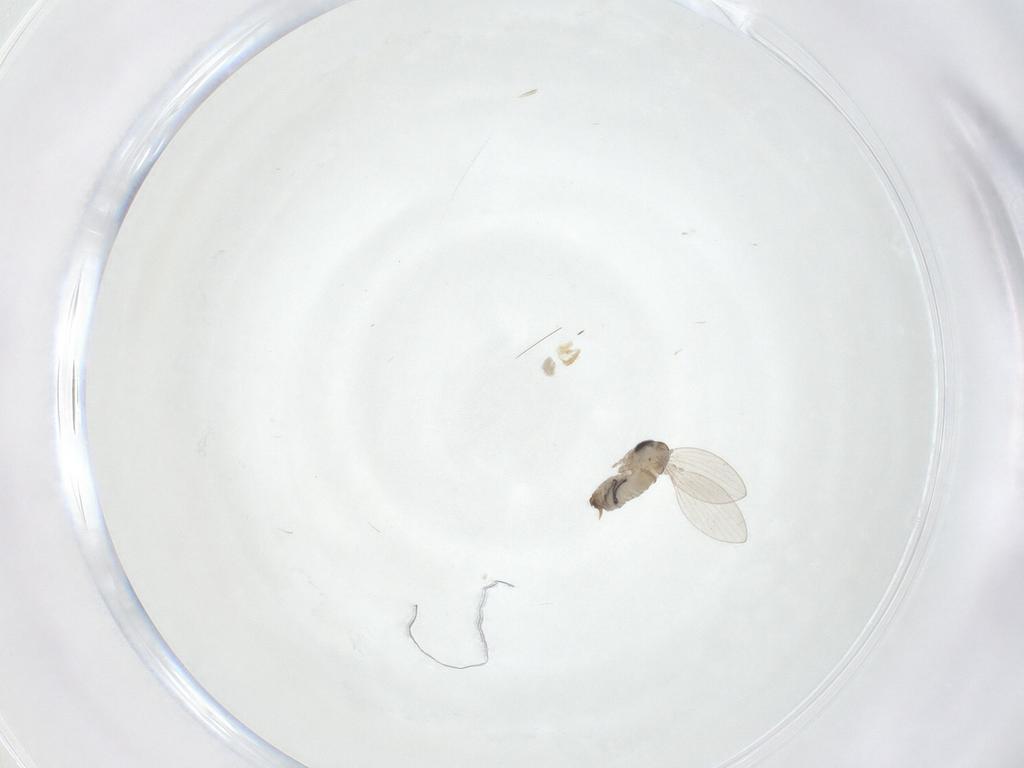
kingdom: Animalia
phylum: Arthropoda
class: Insecta
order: Diptera
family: Psychodidae
